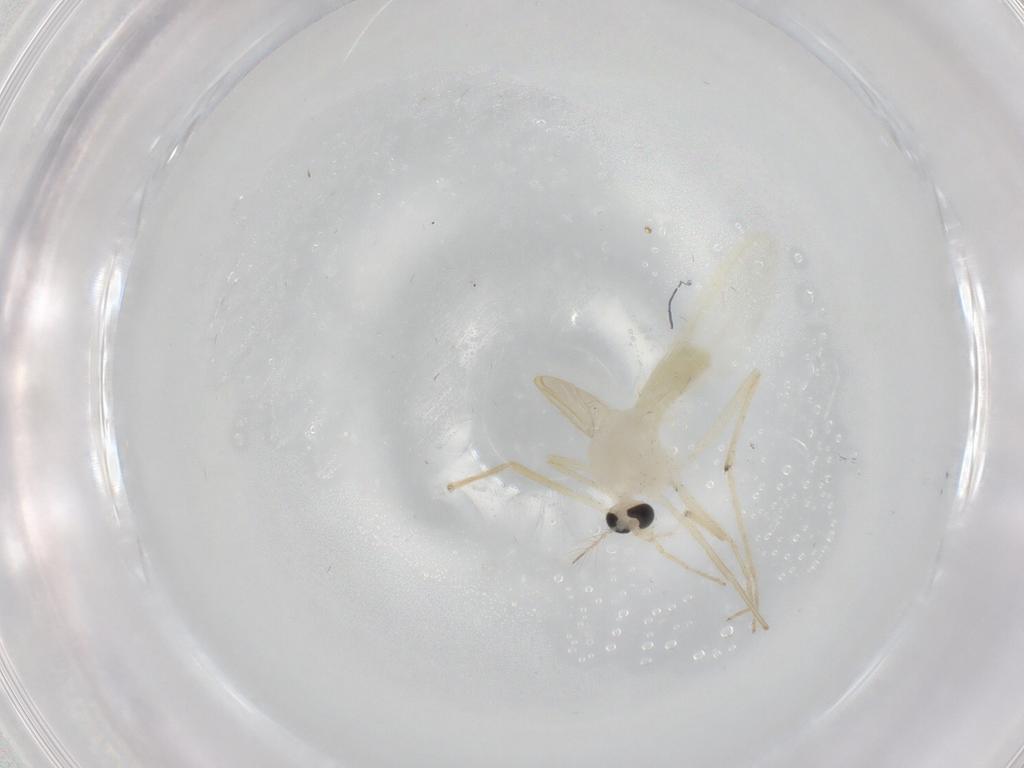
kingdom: Animalia
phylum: Arthropoda
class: Insecta
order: Diptera
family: Chironomidae
